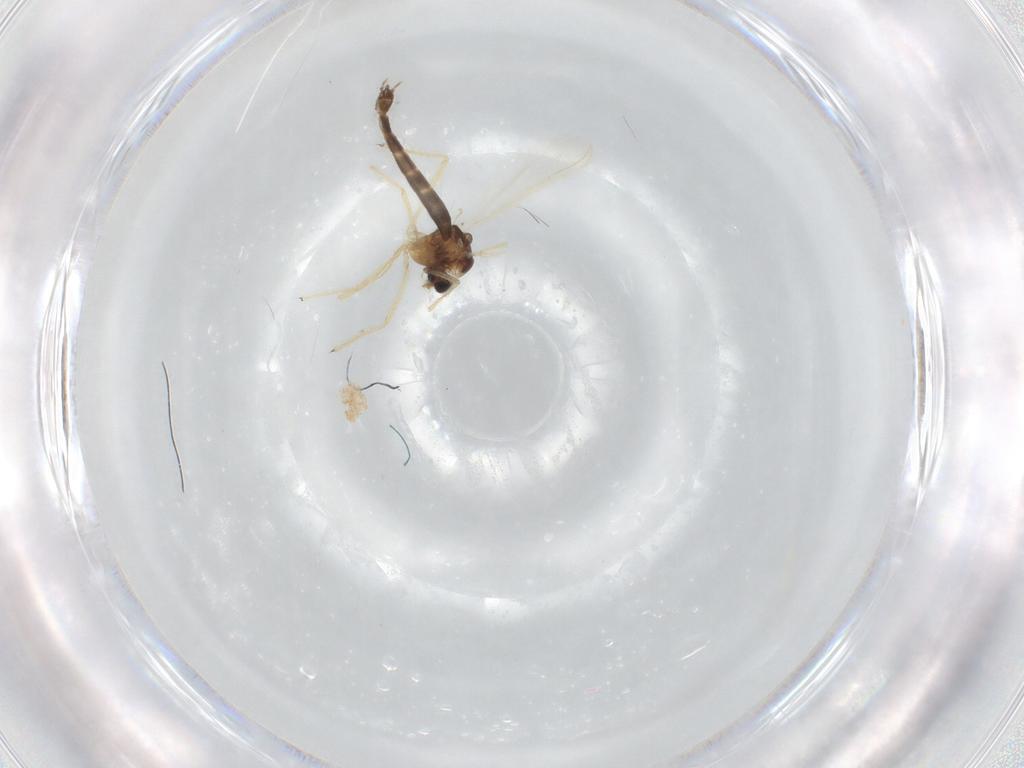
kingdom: Animalia
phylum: Arthropoda
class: Insecta
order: Diptera
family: Chironomidae
